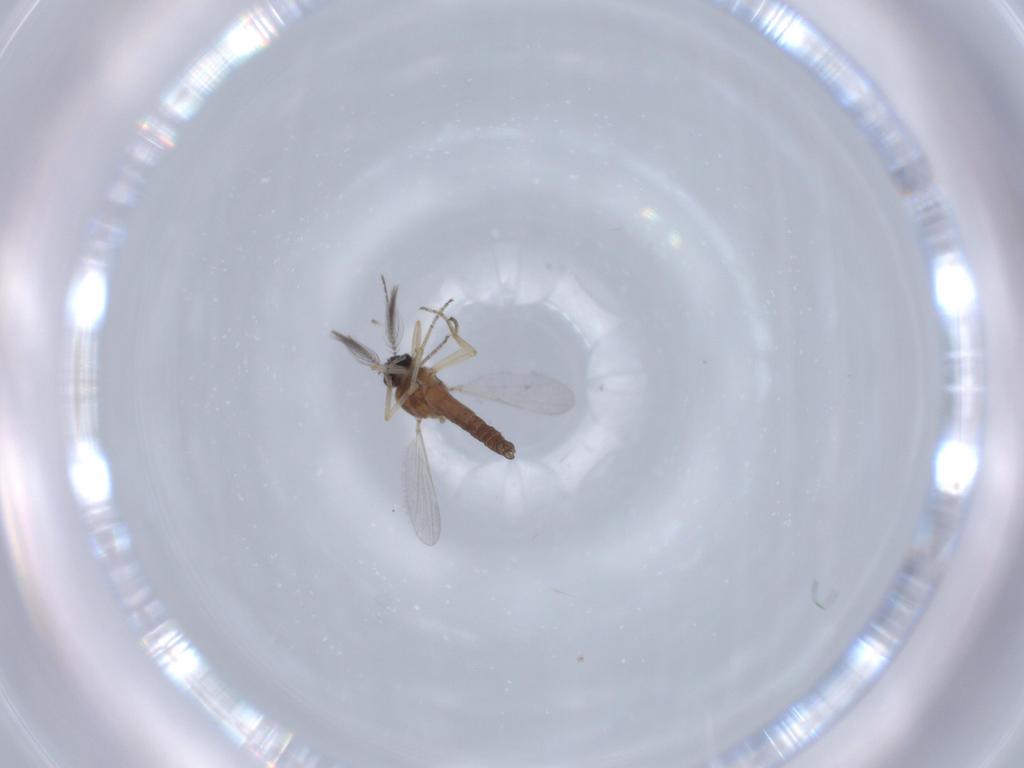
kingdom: Animalia
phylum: Arthropoda
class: Insecta
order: Diptera
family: Ceratopogonidae
